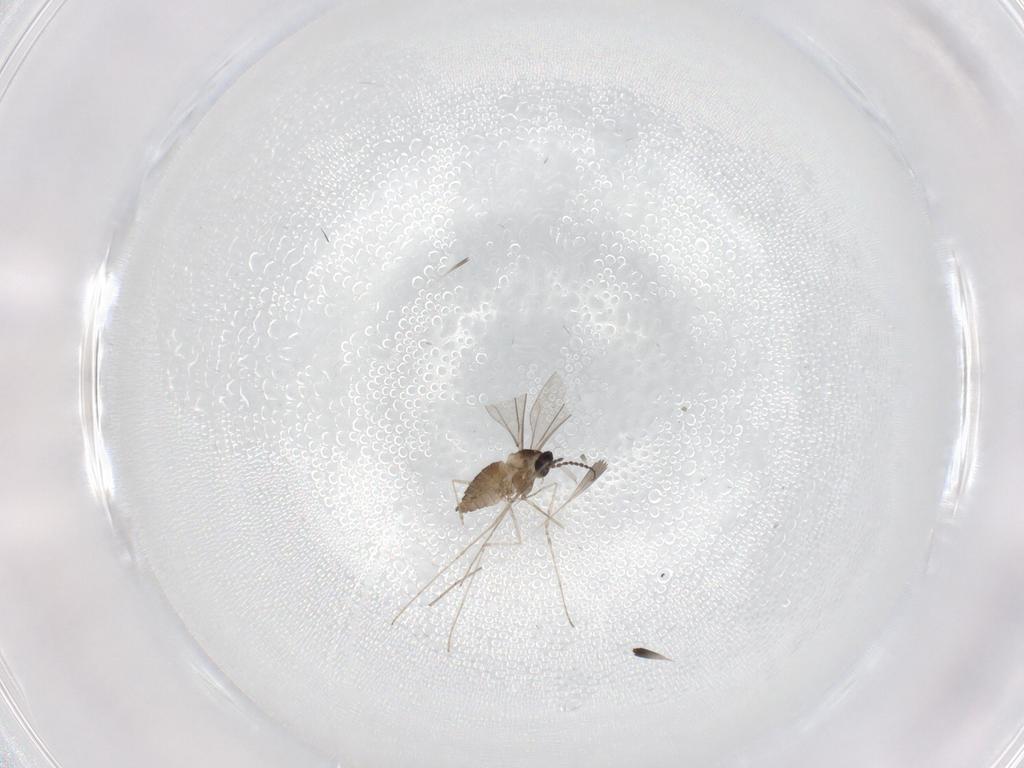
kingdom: Animalia
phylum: Arthropoda
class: Insecta
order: Diptera
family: Cecidomyiidae
